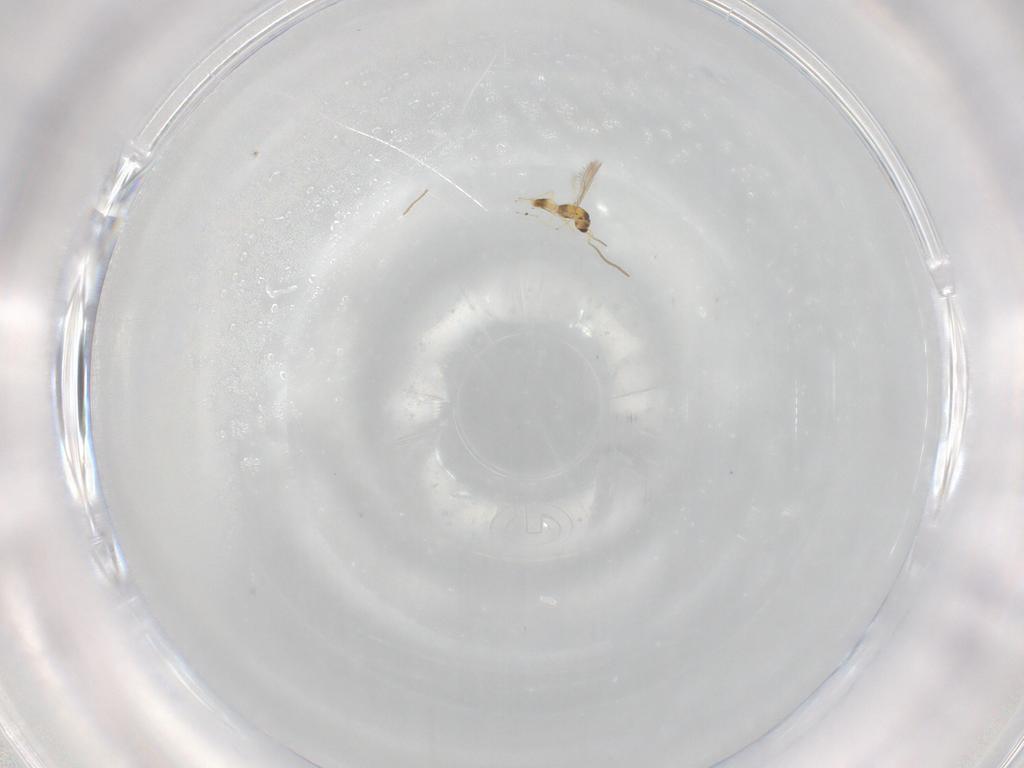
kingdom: Animalia
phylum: Arthropoda
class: Insecta
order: Hymenoptera
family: Mymaridae
